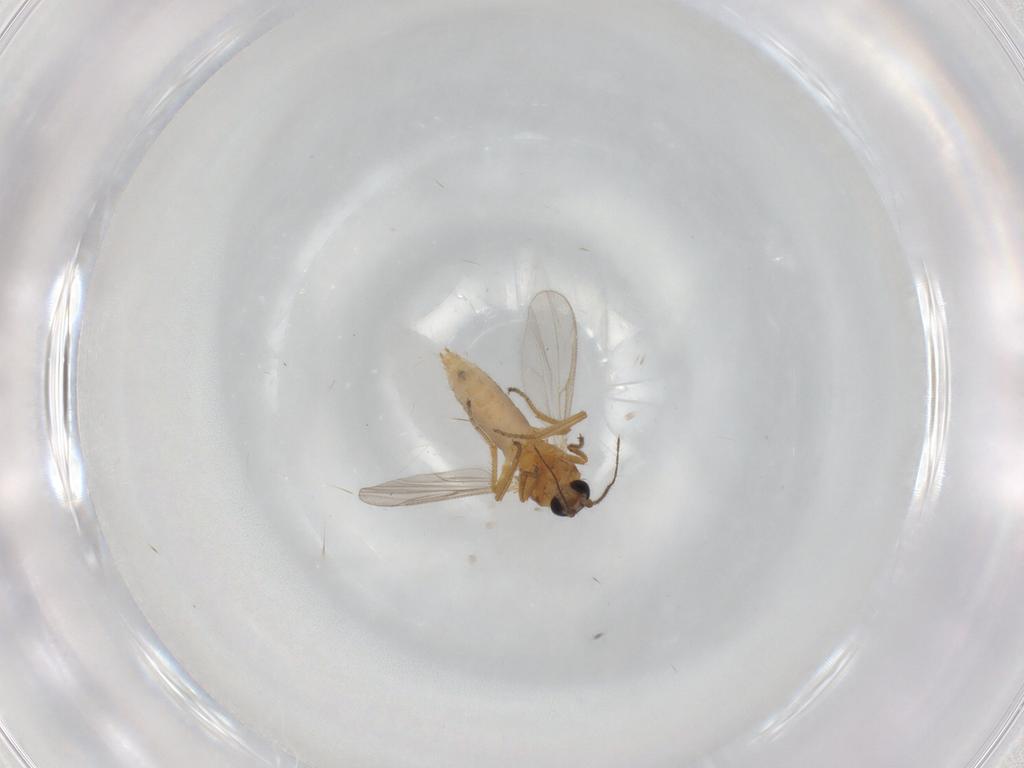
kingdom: Animalia
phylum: Arthropoda
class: Insecta
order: Diptera
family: Ceratopogonidae
